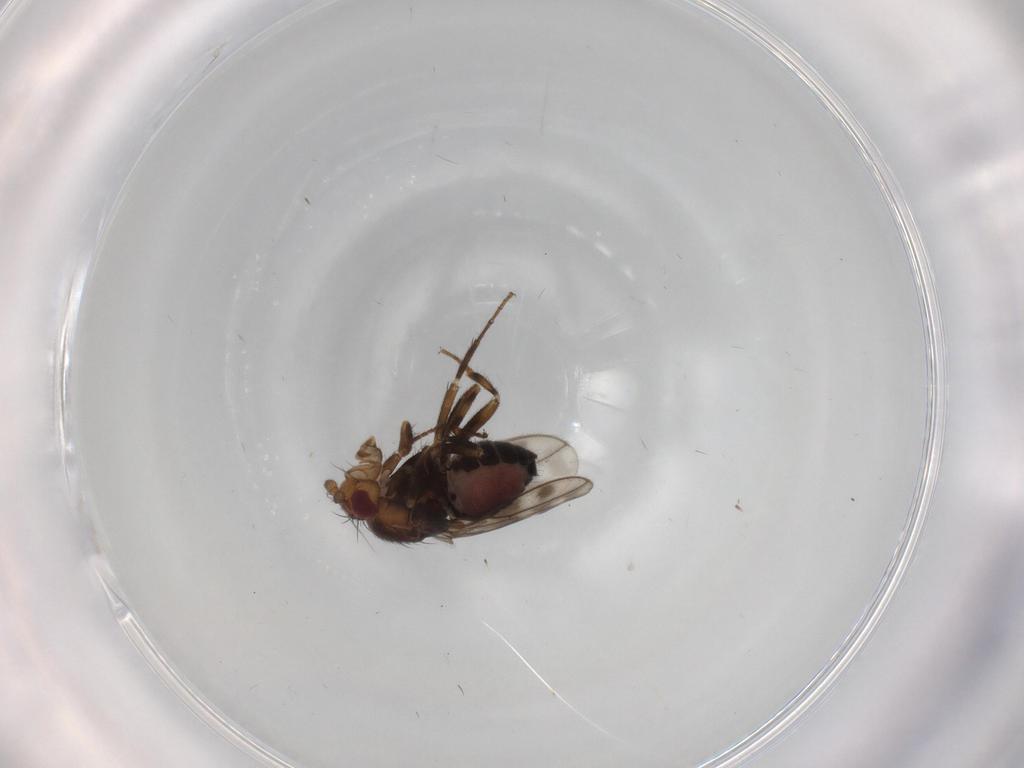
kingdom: Animalia
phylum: Arthropoda
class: Insecta
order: Diptera
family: Sphaeroceridae
